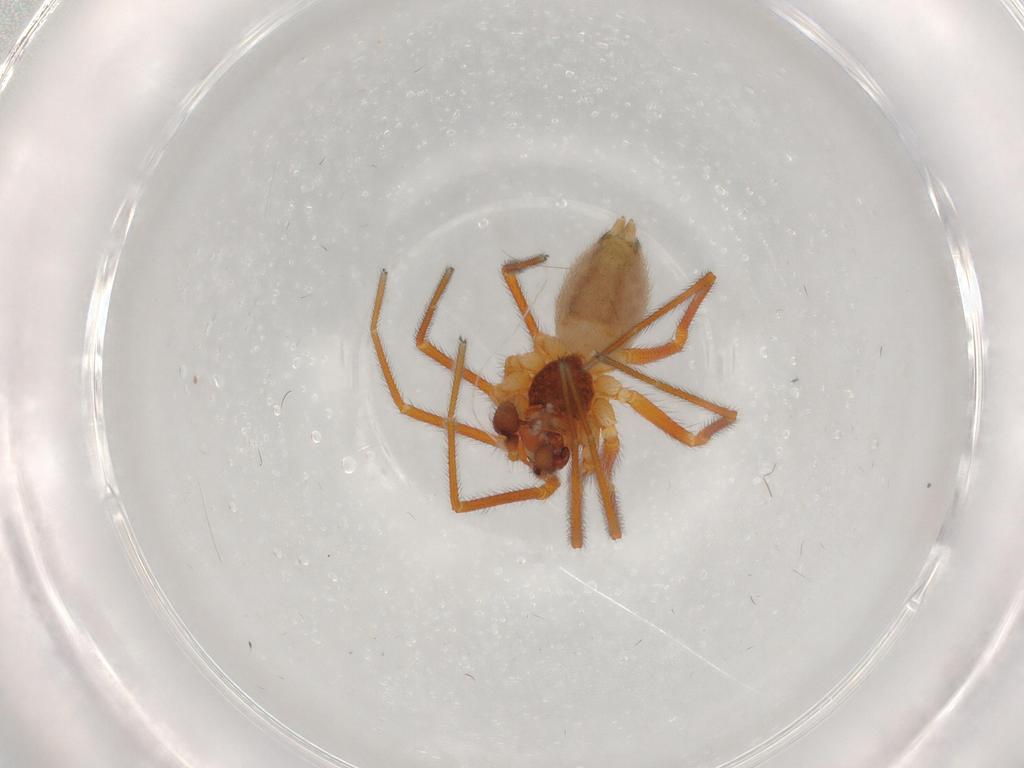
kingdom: Animalia
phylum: Arthropoda
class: Arachnida
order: Araneae
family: Linyphiidae
